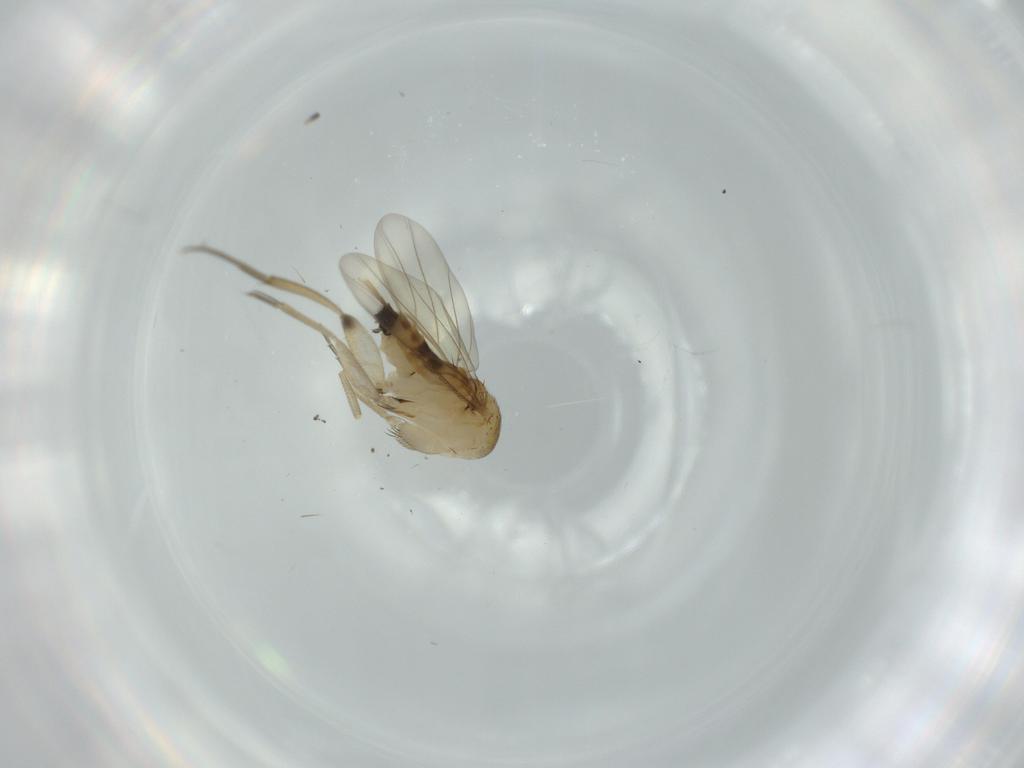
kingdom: Animalia
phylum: Arthropoda
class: Insecta
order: Diptera
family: Phoridae
